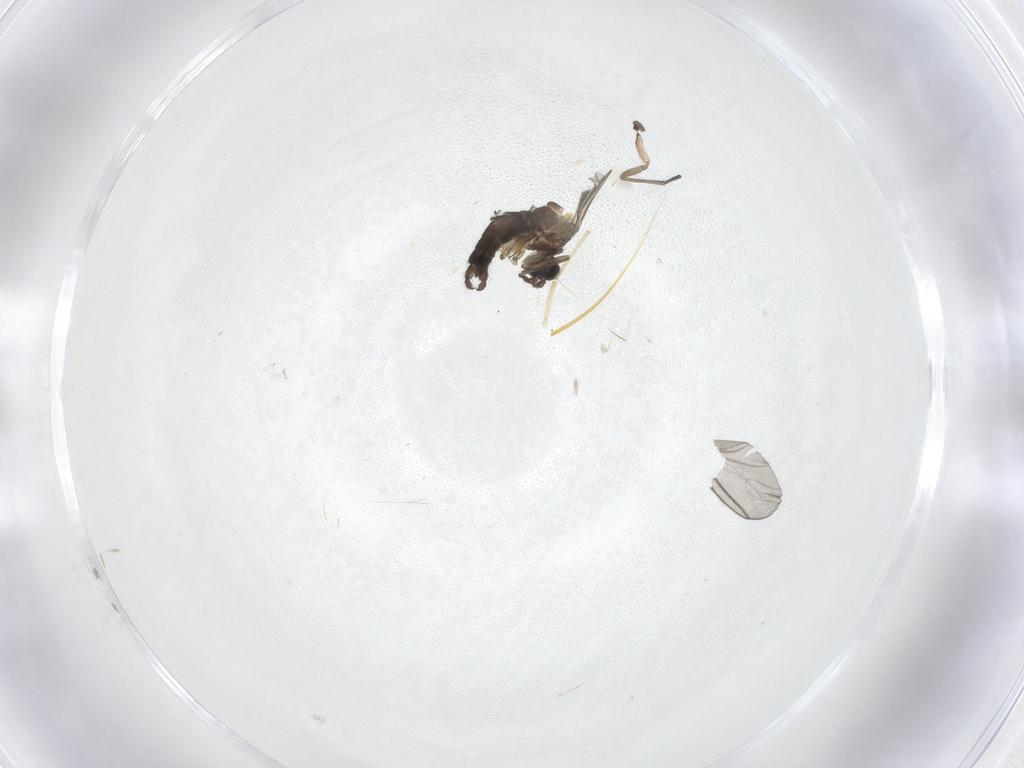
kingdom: Animalia
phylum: Arthropoda
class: Insecta
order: Diptera
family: Sciaridae
